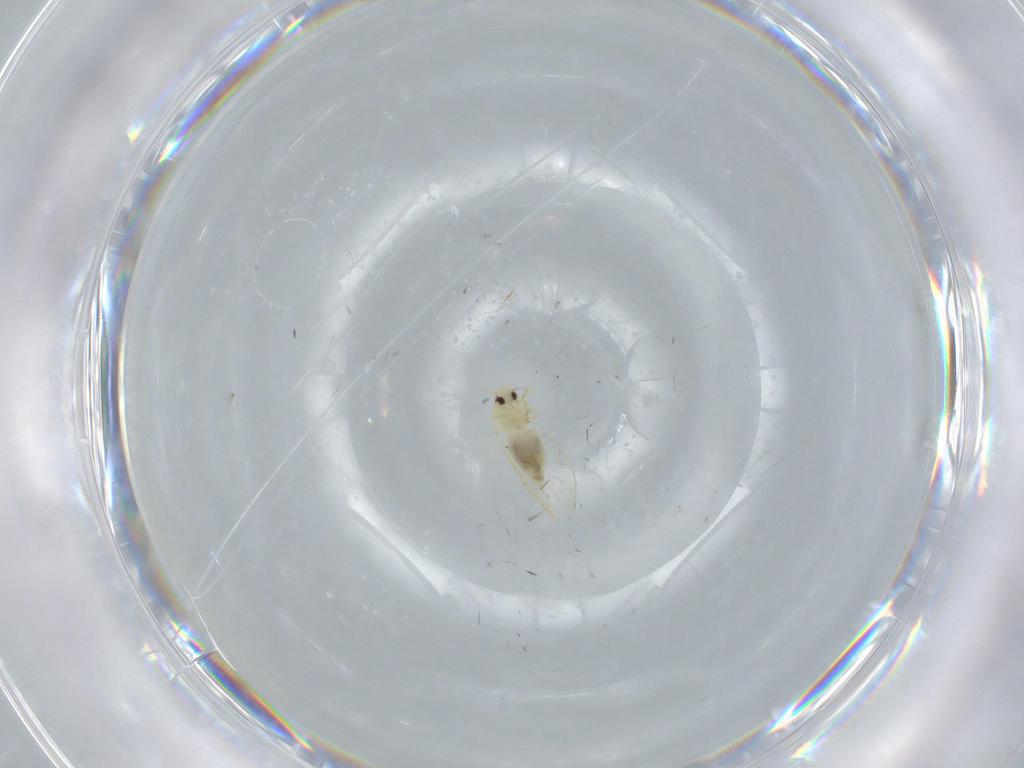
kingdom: Animalia
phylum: Arthropoda
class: Insecta
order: Hemiptera
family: Aleyrodidae
